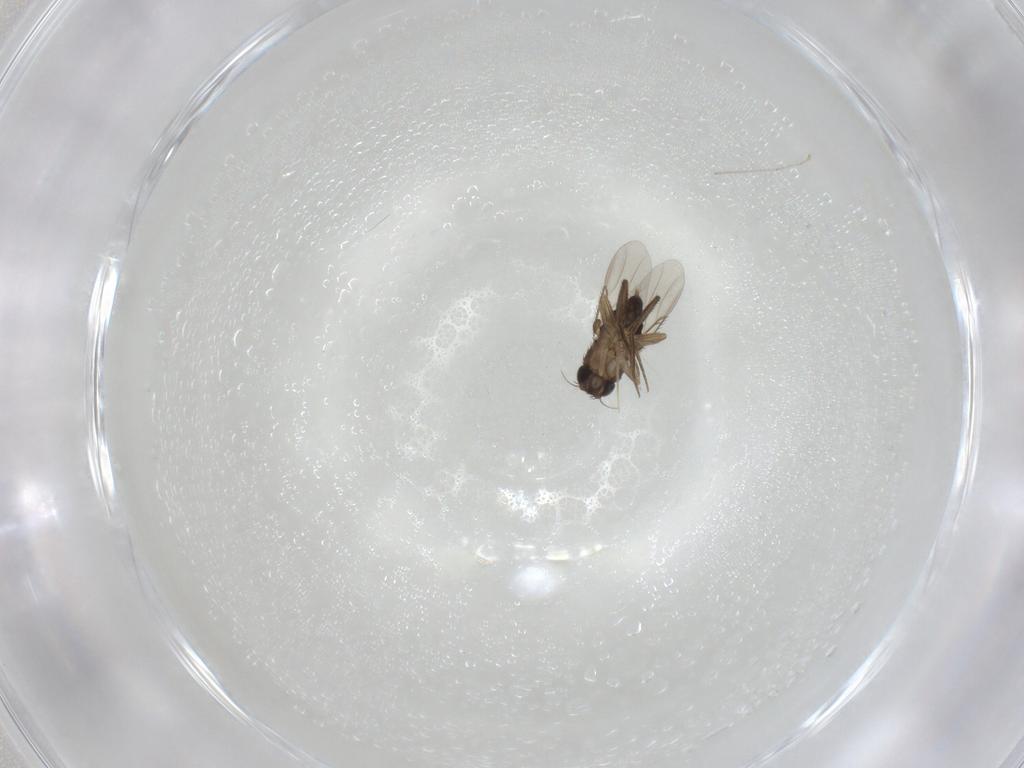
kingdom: Animalia
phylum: Arthropoda
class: Insecta
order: Diptera
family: Phoridae
